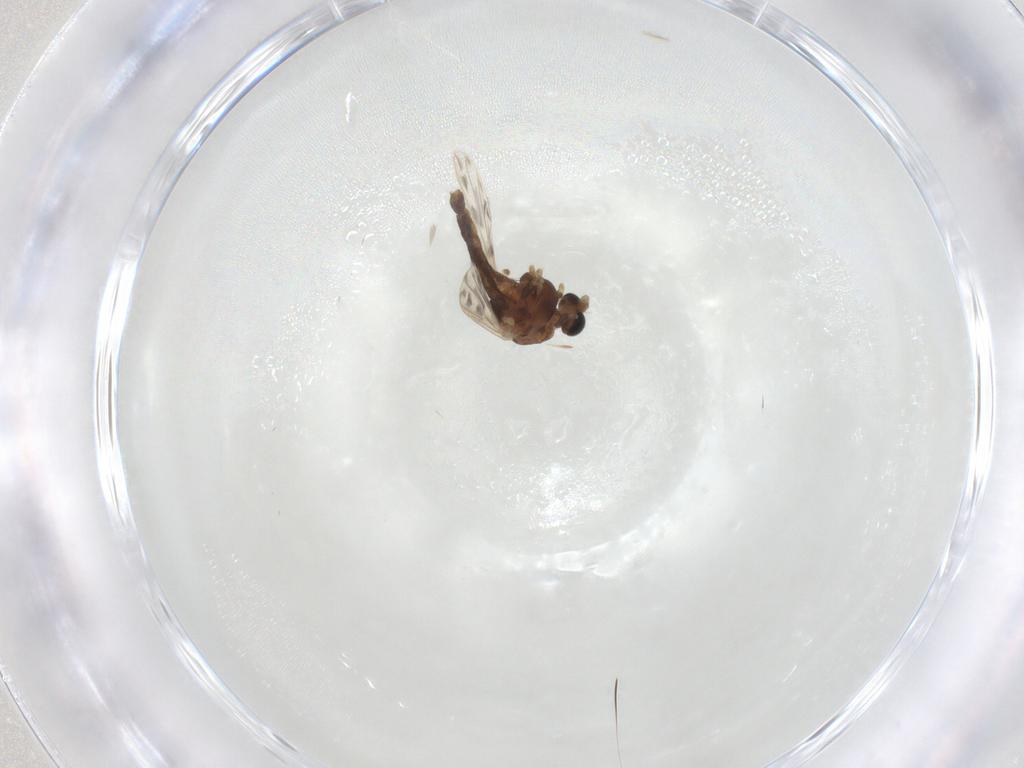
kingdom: Animalia
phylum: Arthropoda
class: Insecta
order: Diptera
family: Chironomidae
